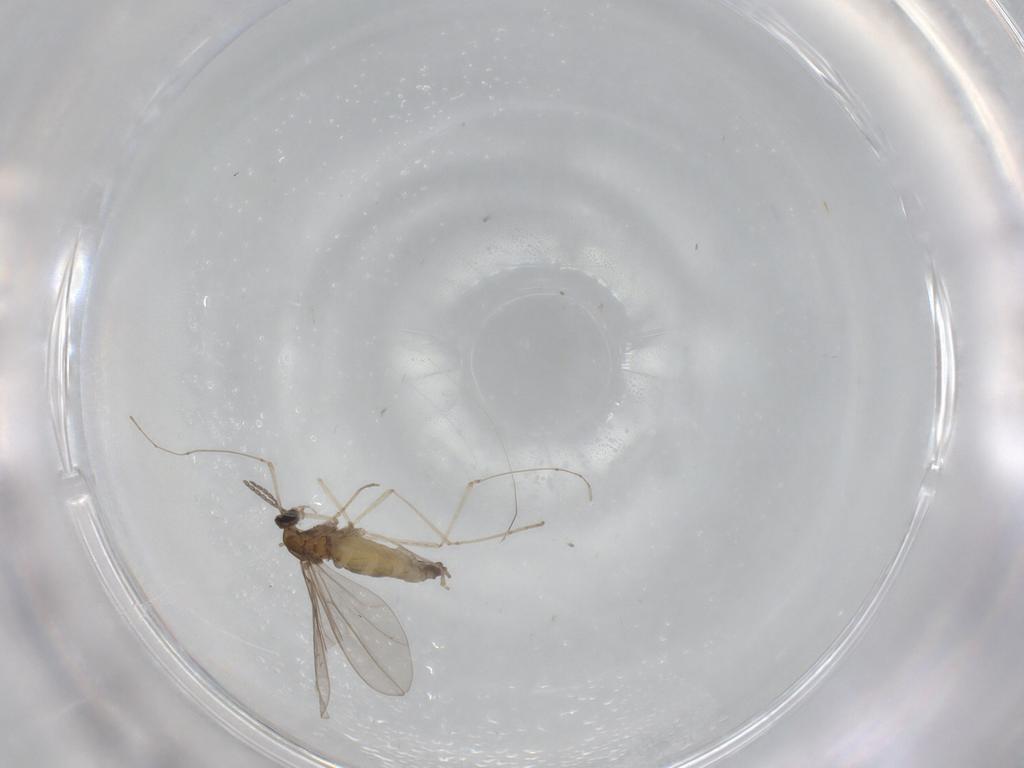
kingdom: Animalia
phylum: Arthropoda
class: Insecta
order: Diptera
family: Cecidomyiidae
